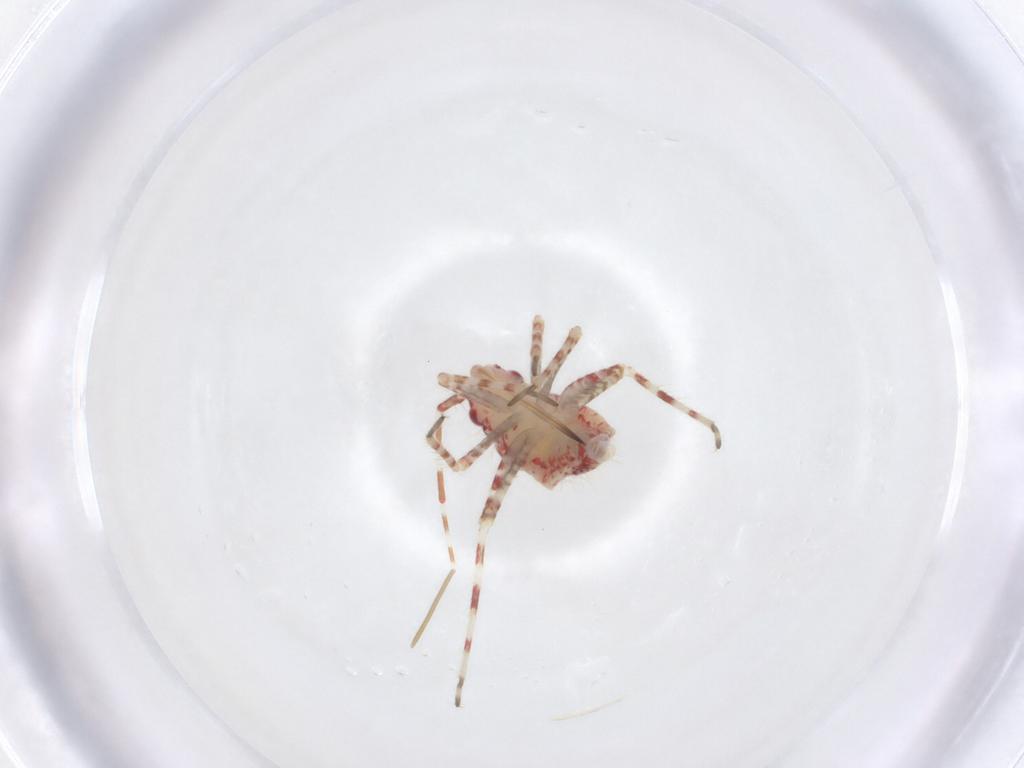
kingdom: Animalia
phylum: Arthropoda
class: Insecta
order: Hemiptera
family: Miridae
